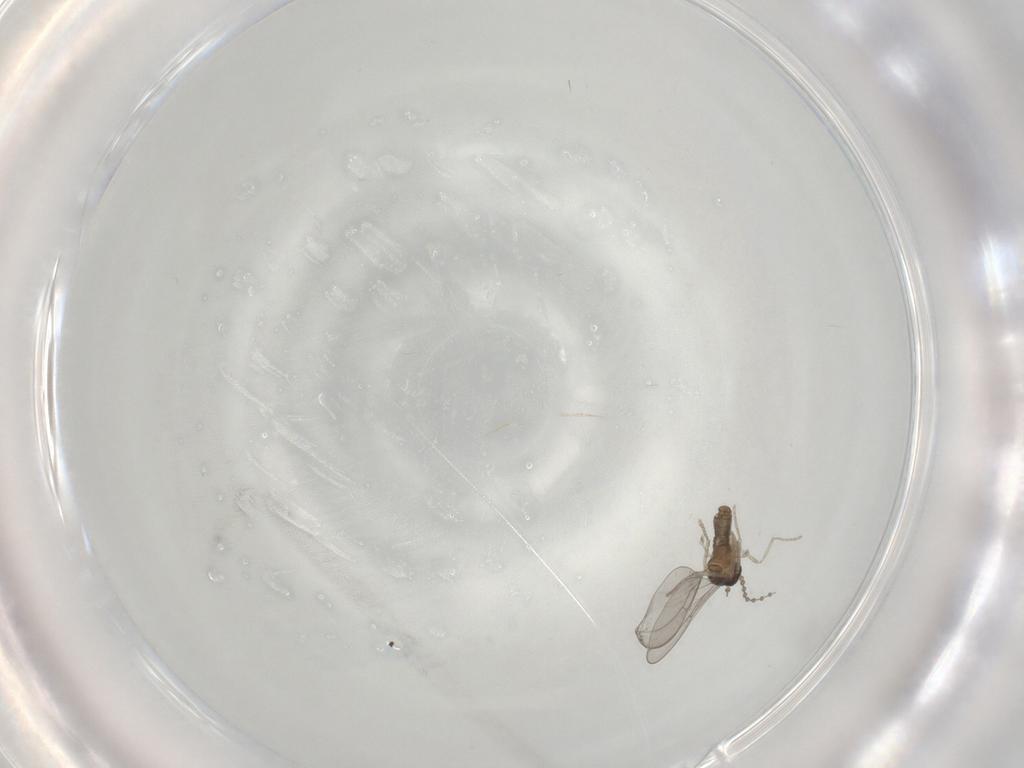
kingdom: Animalia
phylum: Arthropoda
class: Insecta
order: Diptera
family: Cecidomyiidae
